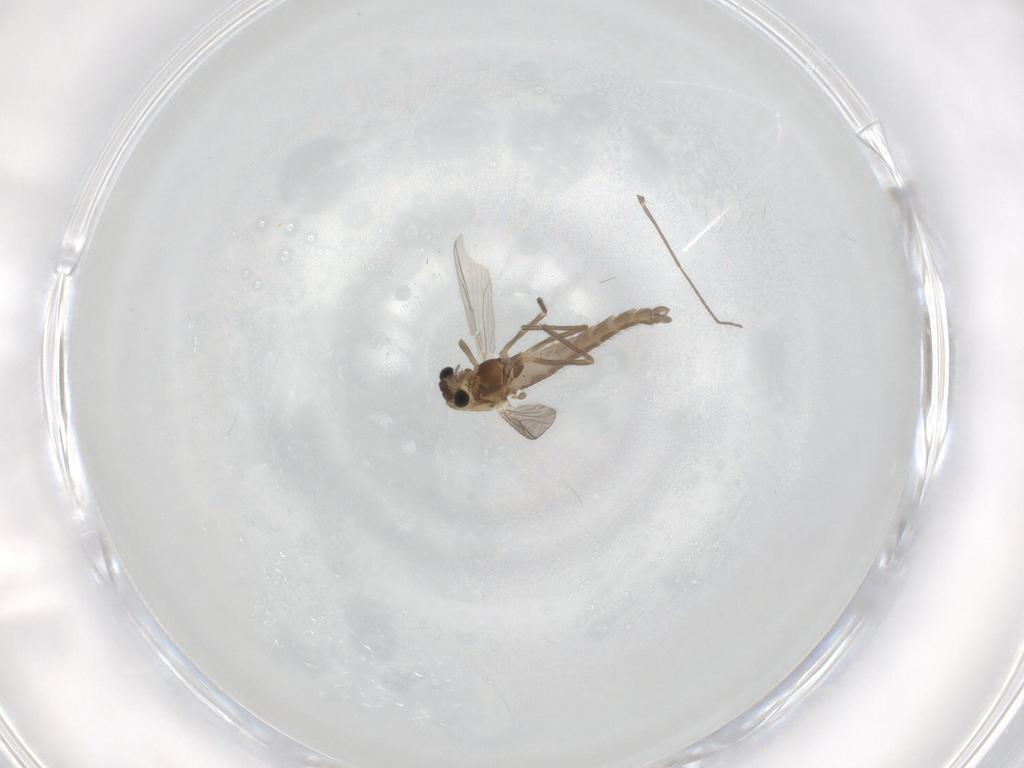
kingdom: Animalia
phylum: Arthropoda
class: Insecta
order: Diptera
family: Chironomidae
